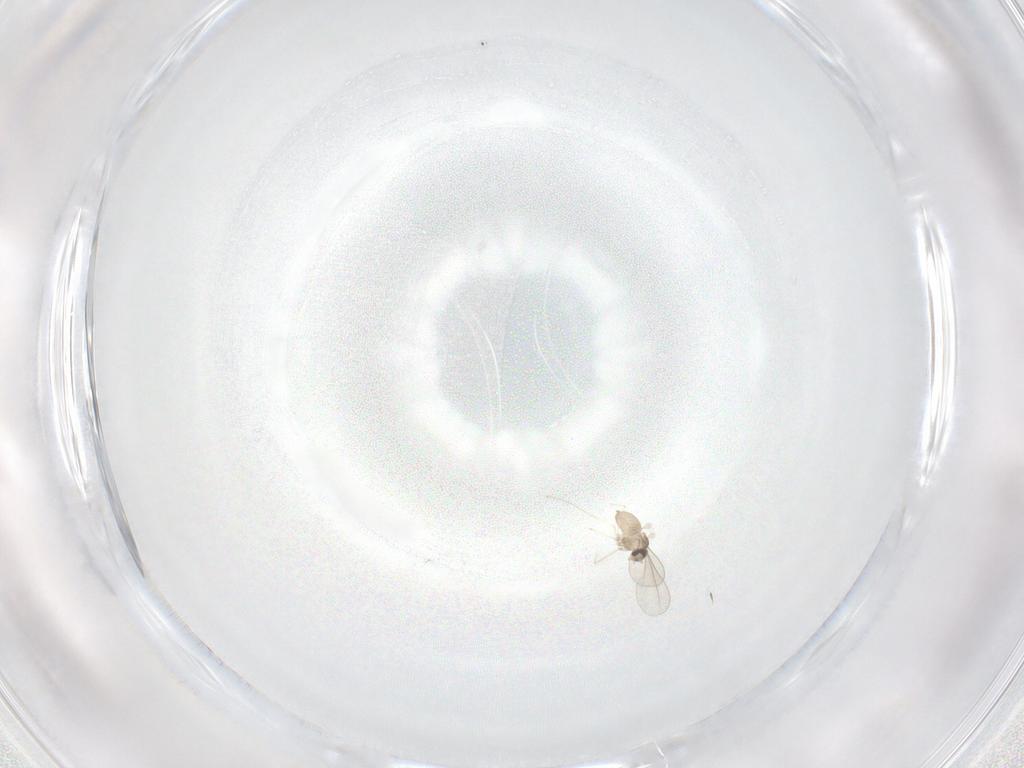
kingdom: Animalia
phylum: Arthropoda
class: Insecta
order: Diptera
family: Cecidomyiidae
